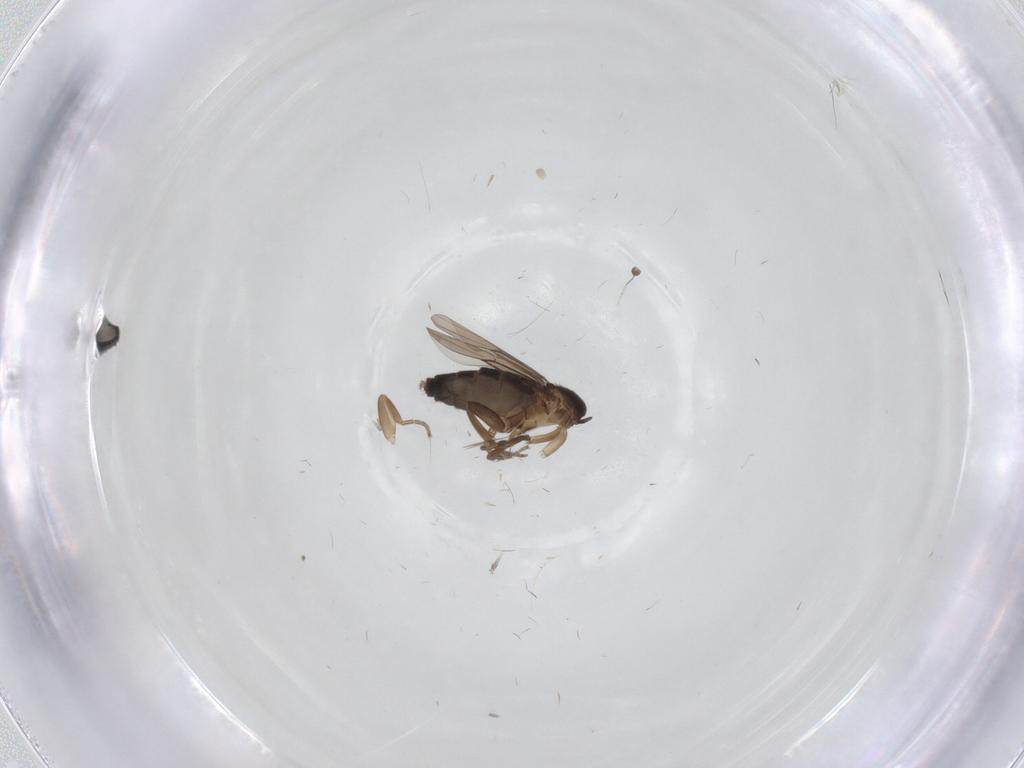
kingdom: Animalia
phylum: Arthropoda
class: Insecta
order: Diptera
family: Phoridae
